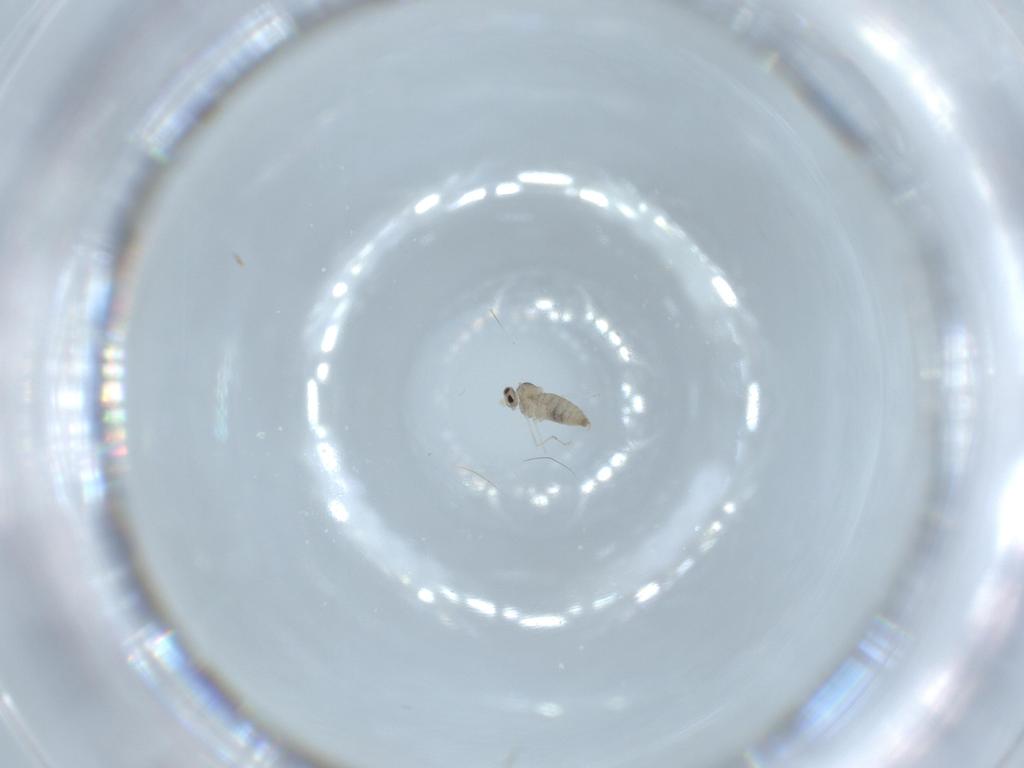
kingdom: Animalia
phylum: Arthropoda
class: Insecta
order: Diptera
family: Cecidomyiidae
